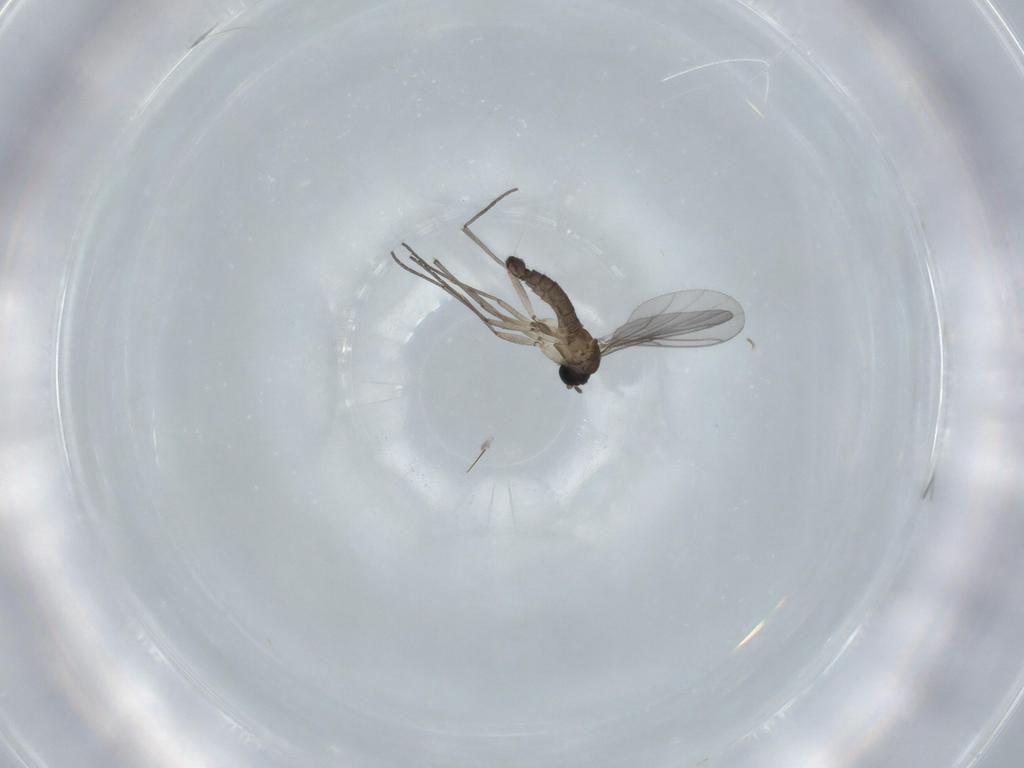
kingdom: Animalia
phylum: Arthropoda
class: Insecta
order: Diptera
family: Sciaridae
